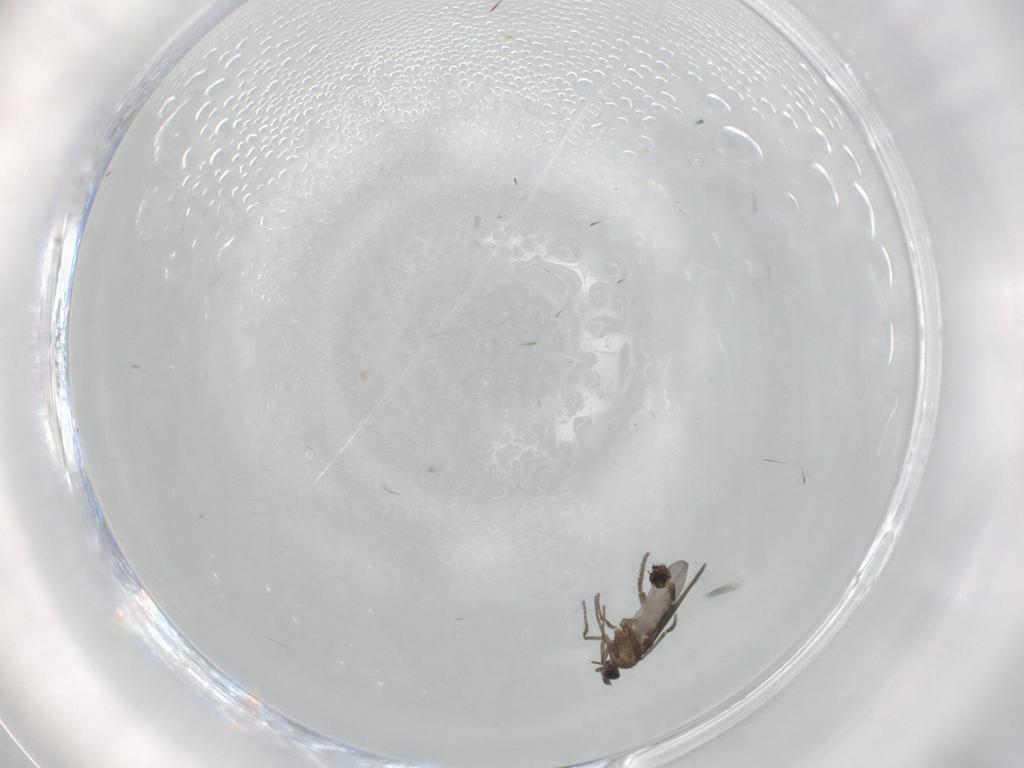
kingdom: Animalia
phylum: Arthropoda
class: Insecta
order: Diptera
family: Drosophilidae
